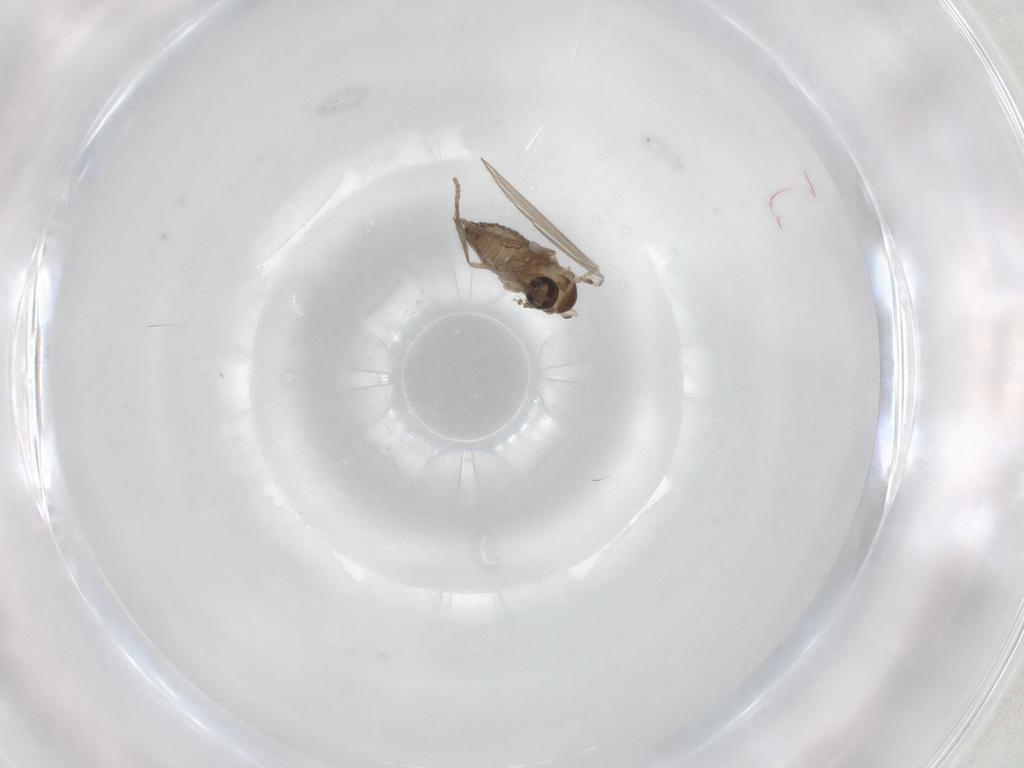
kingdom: Animalia
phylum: Arthropoda
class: Insecta
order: Diptera
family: Psychodidae
